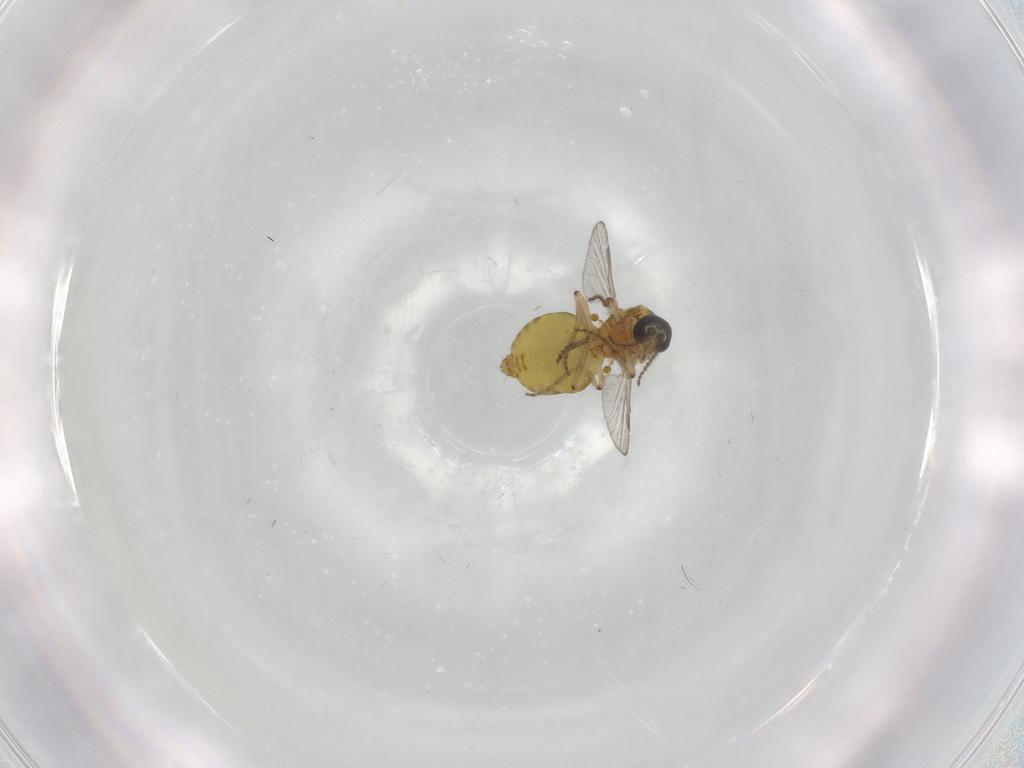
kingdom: Animalia
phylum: Arthropoda
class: Insecta
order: Diptera
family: Ceratopogonidae
